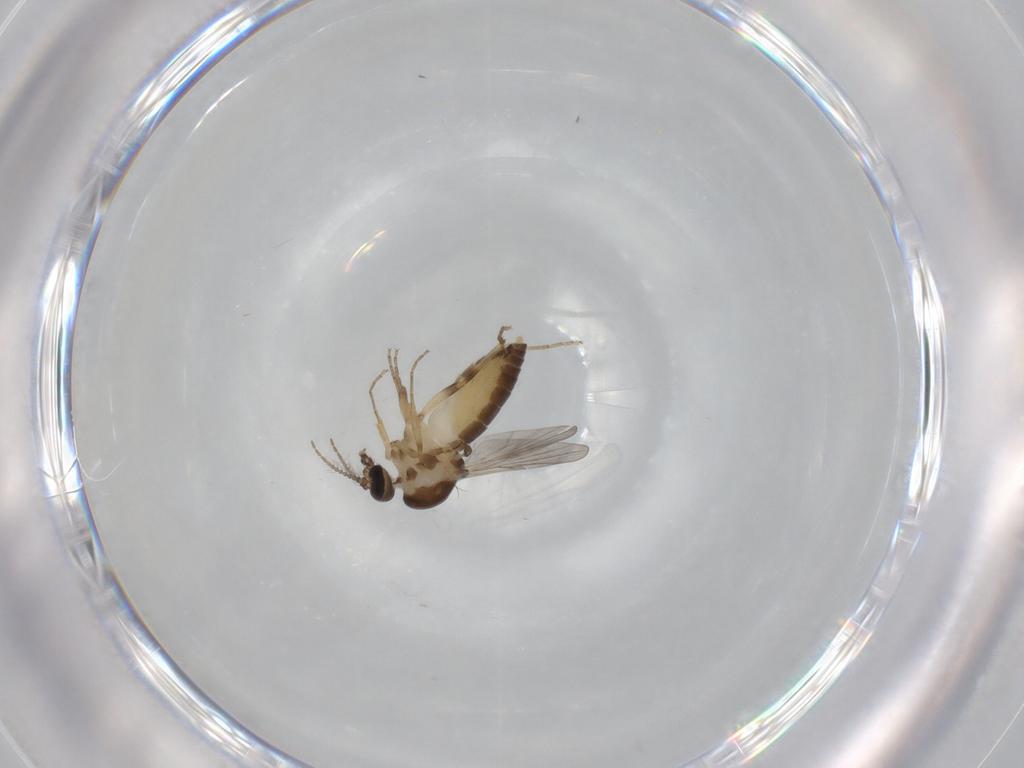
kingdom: Animalia
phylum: Arthropoda
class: Insecta
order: Diptera
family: Ceratopogonidae
